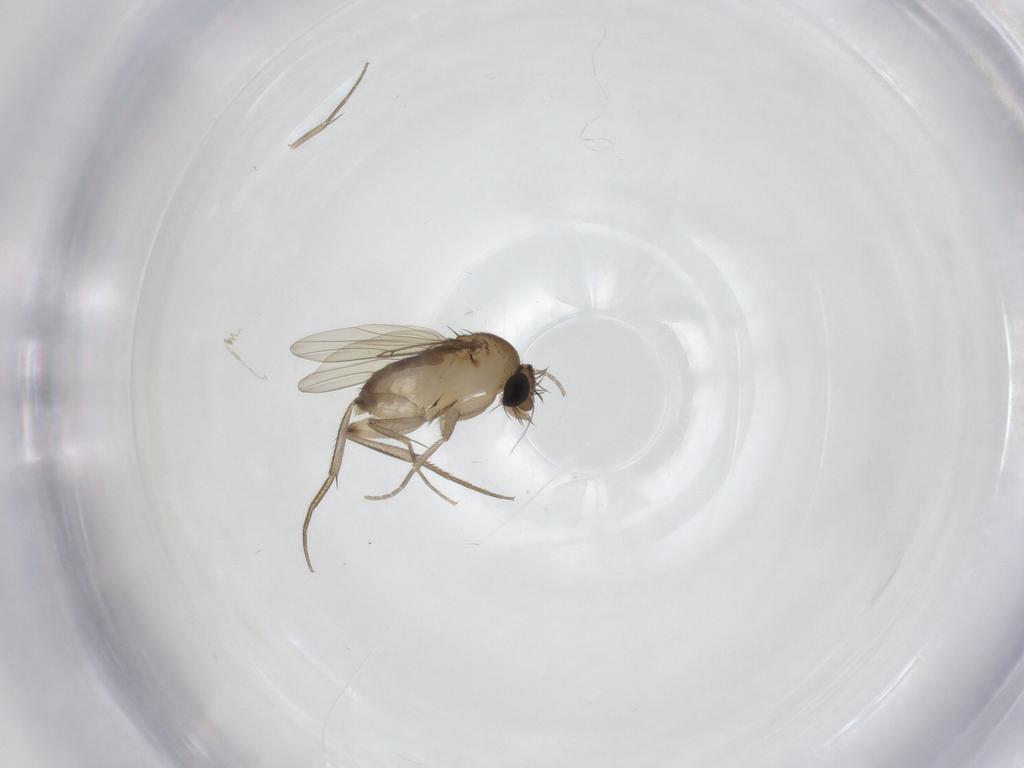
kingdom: Animalia
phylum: Arthropoda
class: Insecta
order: Diptera
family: Phoridae
